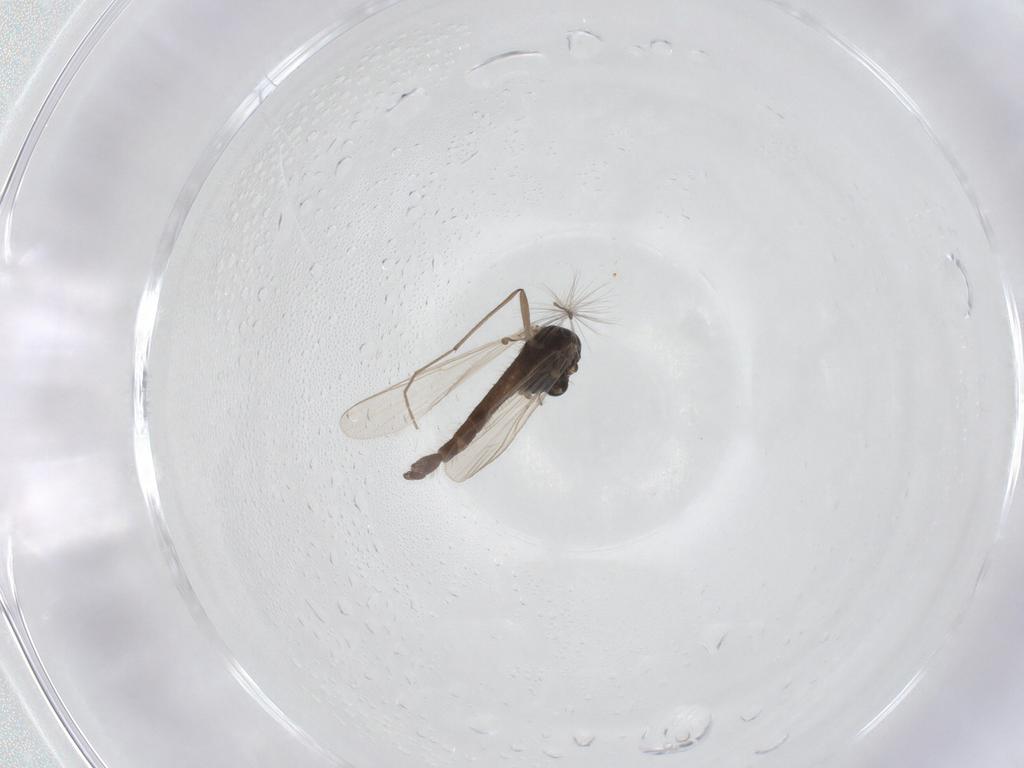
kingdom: Animalia
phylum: Arthropoda
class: Insecta
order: Diptera
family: Chironomidae
